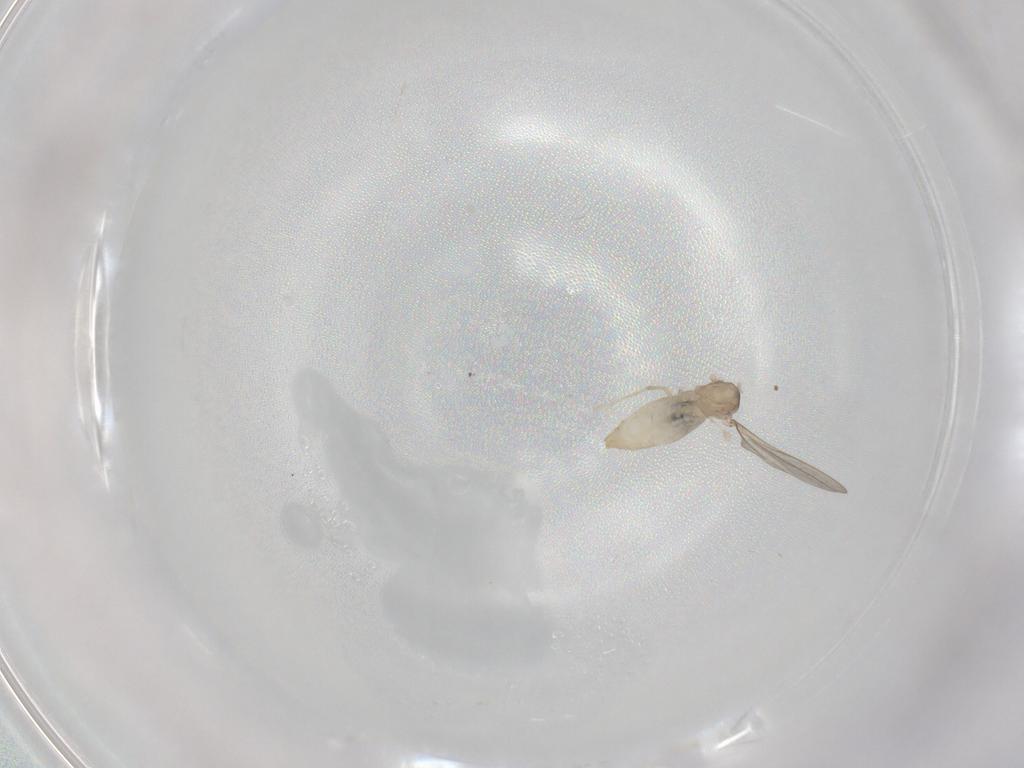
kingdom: Animalia
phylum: Arthropoda
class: Insecta
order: Diptera
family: Cecidomyiidae
